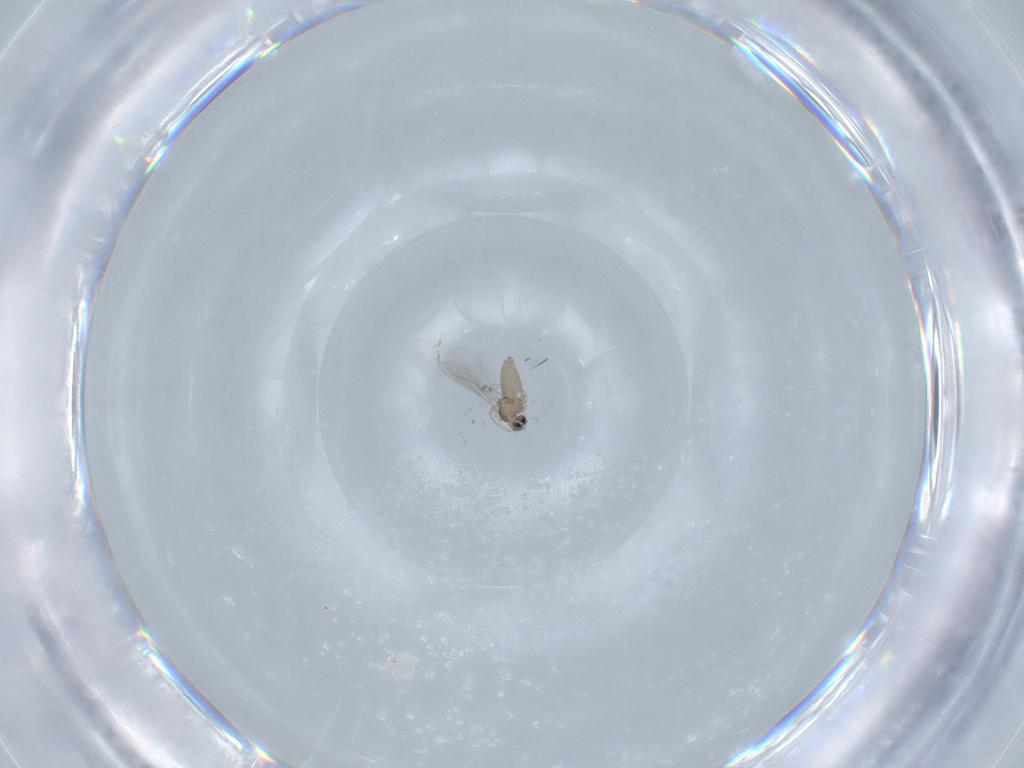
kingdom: Animalia
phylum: Arthropoda
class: Insecta
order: Diptera
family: Cecidomyiidae
